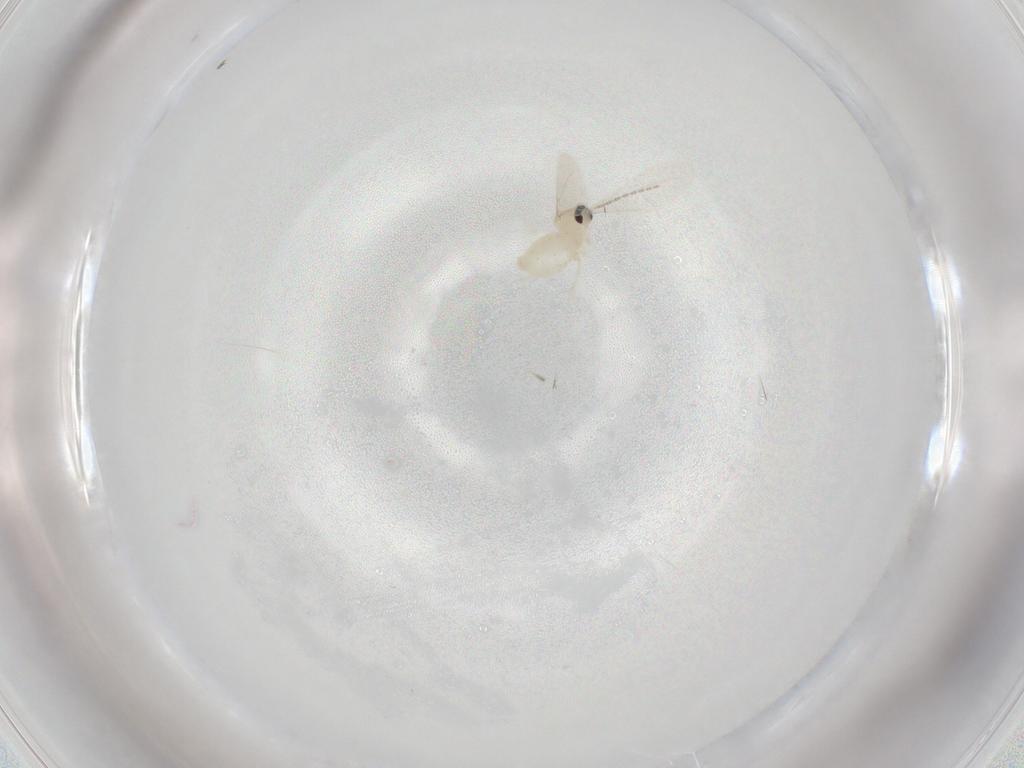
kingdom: Animalia
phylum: Arthropoda
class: Insecta
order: Diptera
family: Cecidomyiidae
